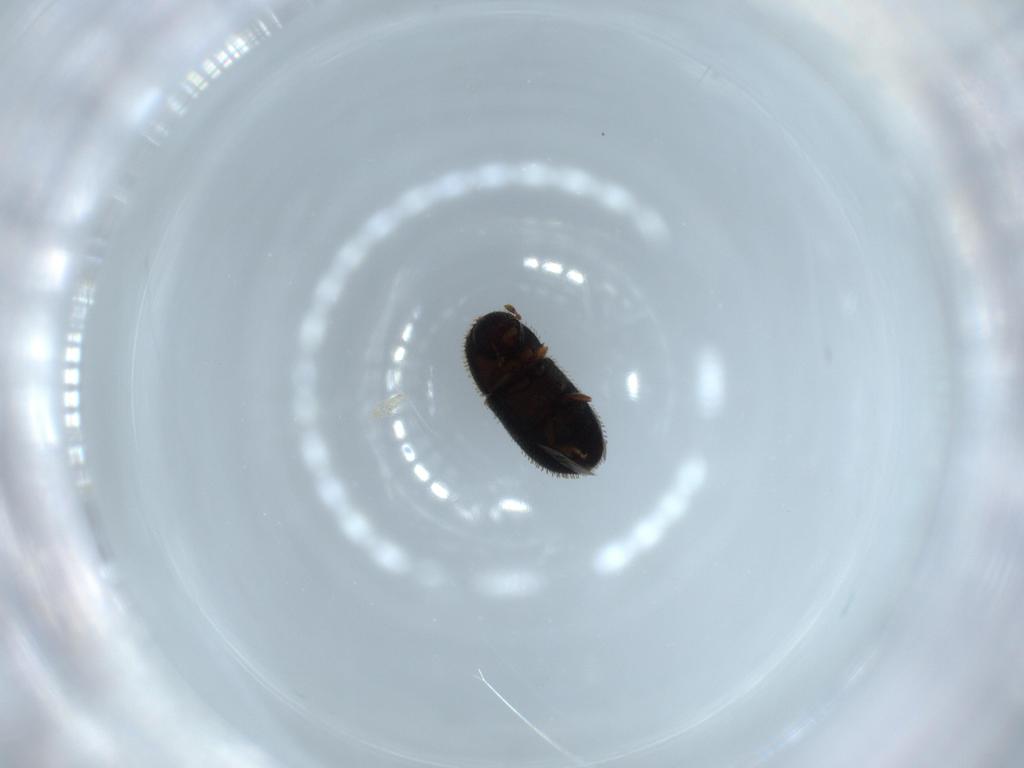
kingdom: Animalia
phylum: Arthropoda
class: Insecta
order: Coleoptera
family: Curculionidae
